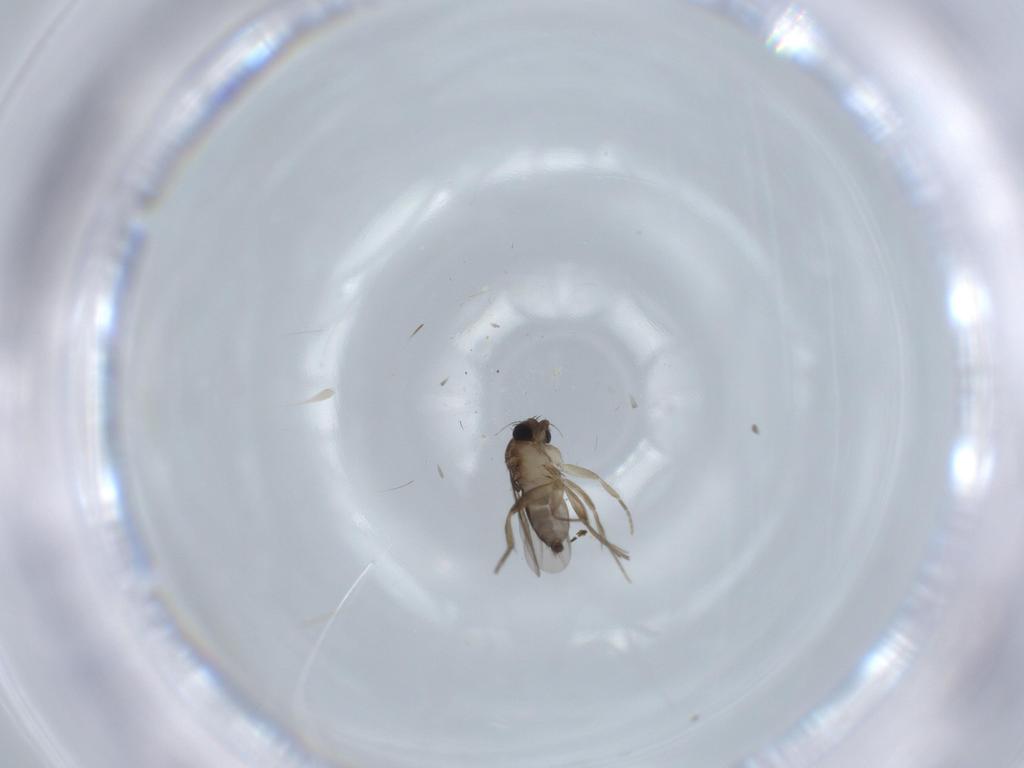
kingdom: Animalia
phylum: Arthropoda
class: Insecta
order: Diptera
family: Phoridae
